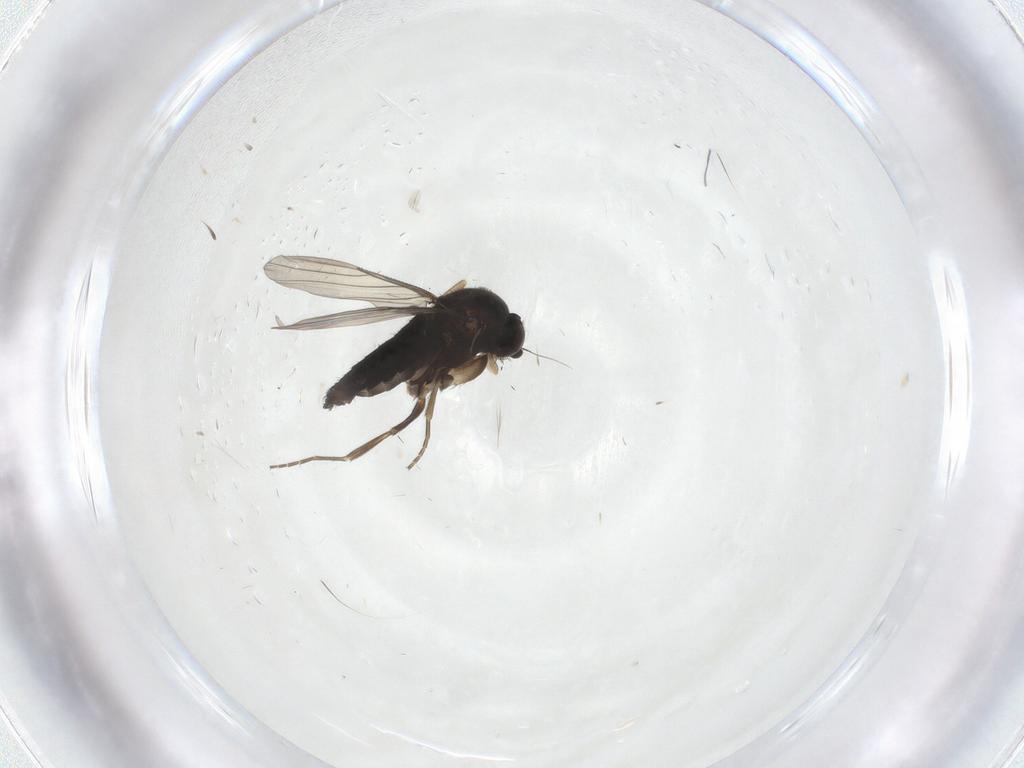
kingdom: Animalia
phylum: Arthropoda
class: Insecta
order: Diptera
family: Phoridae
